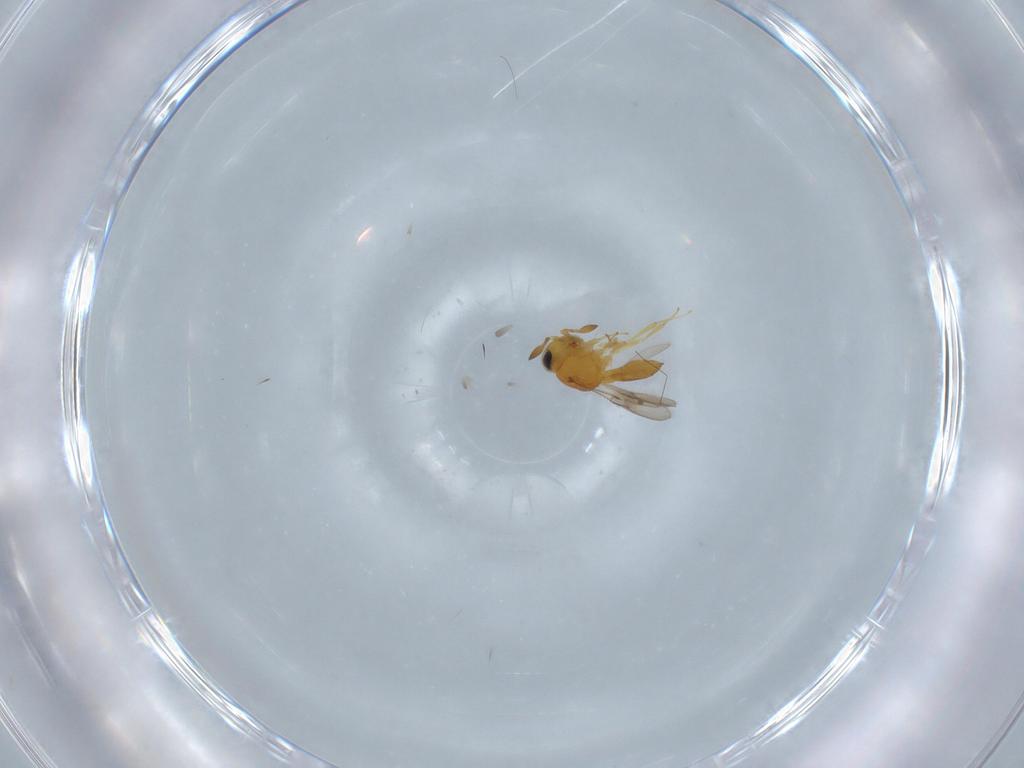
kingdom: Animalia
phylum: Arthropoda
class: Insecta
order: Hymenoptera
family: Scelionidae
